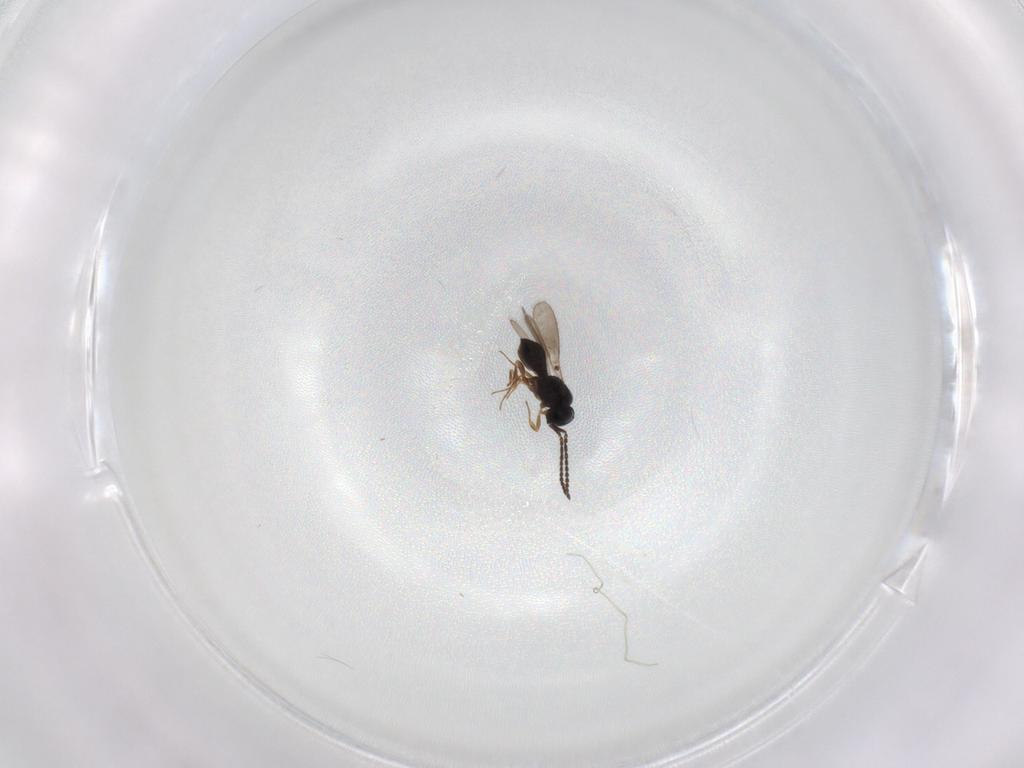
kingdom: Animalia
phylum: Arthropoda
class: Insecta
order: Hymenoptera
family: Scelionidae
